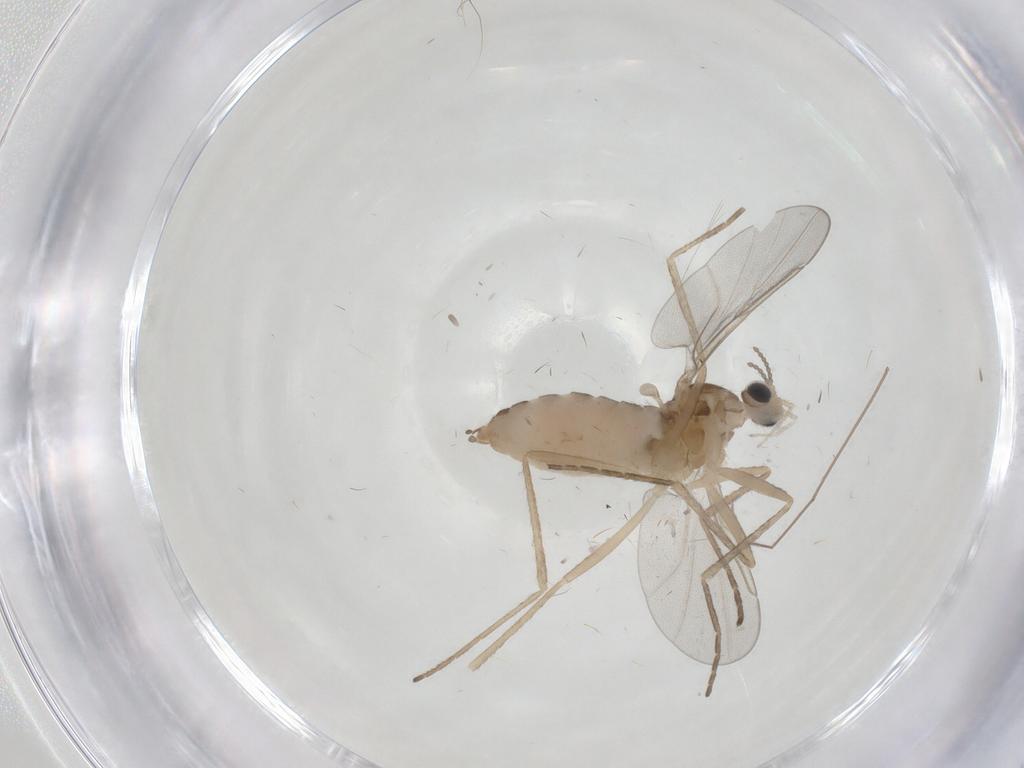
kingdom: Animalia
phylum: Arthropoda
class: Insecta
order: Diptera
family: Cecidomyiidae
